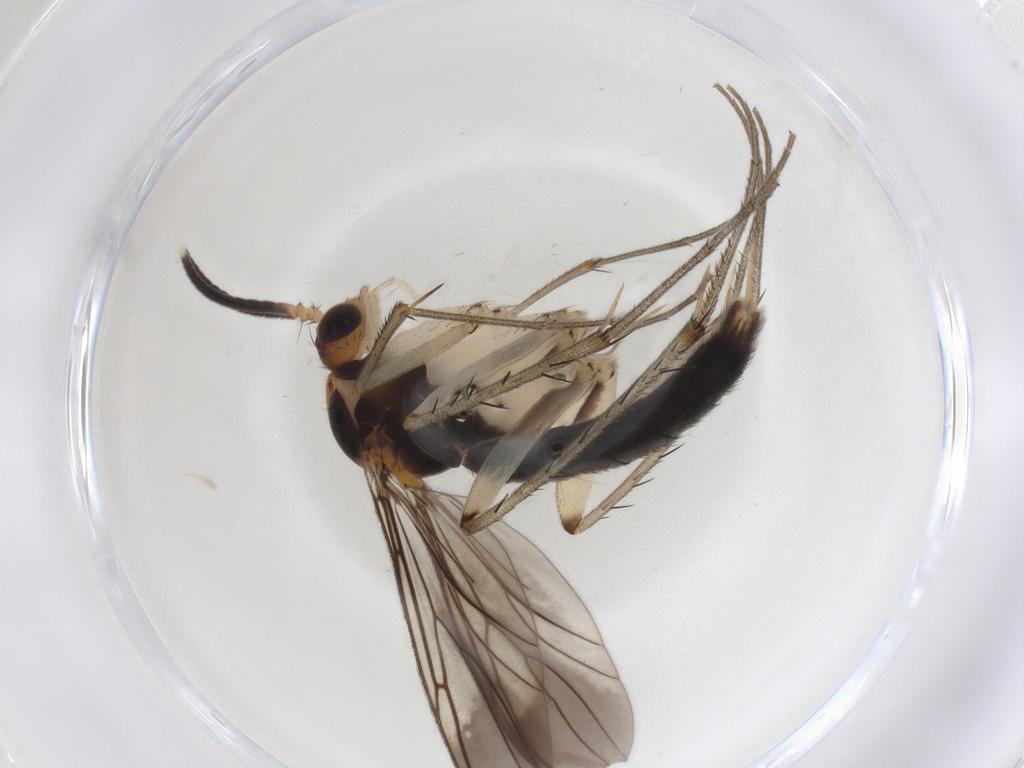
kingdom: Animalia
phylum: Arthropoda
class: Insecta
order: Diptera
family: Mycetophilidae
